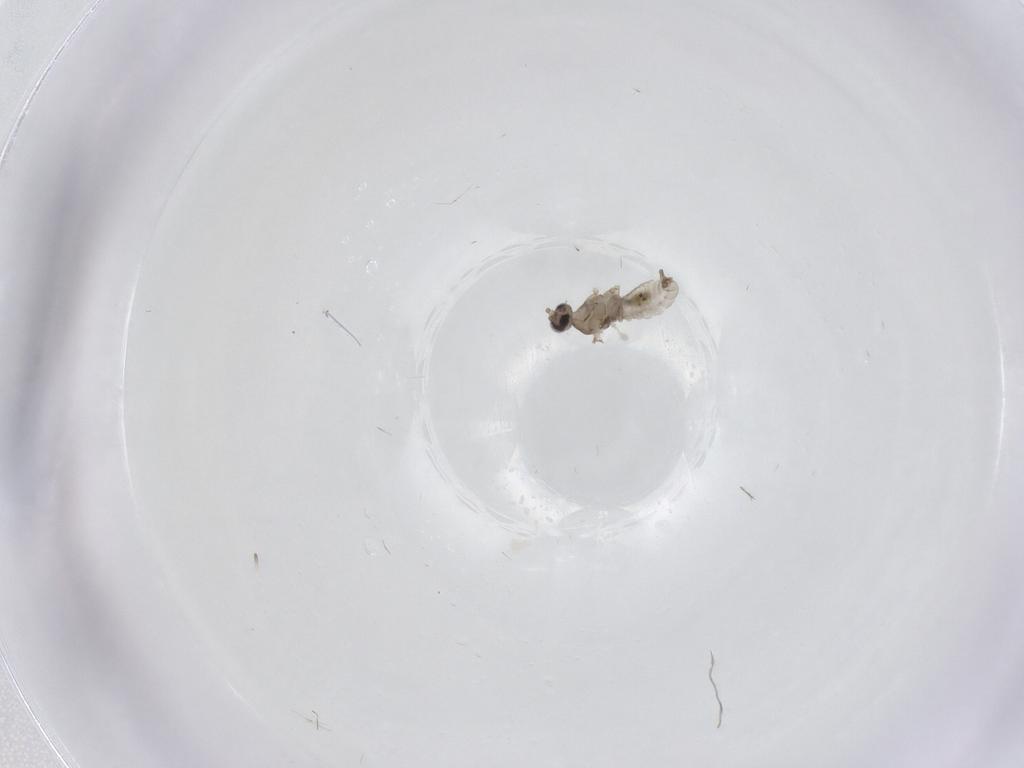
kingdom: Animalia
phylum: Arthropoda
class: Insecta
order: Diptera
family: Cecidomyiidae
